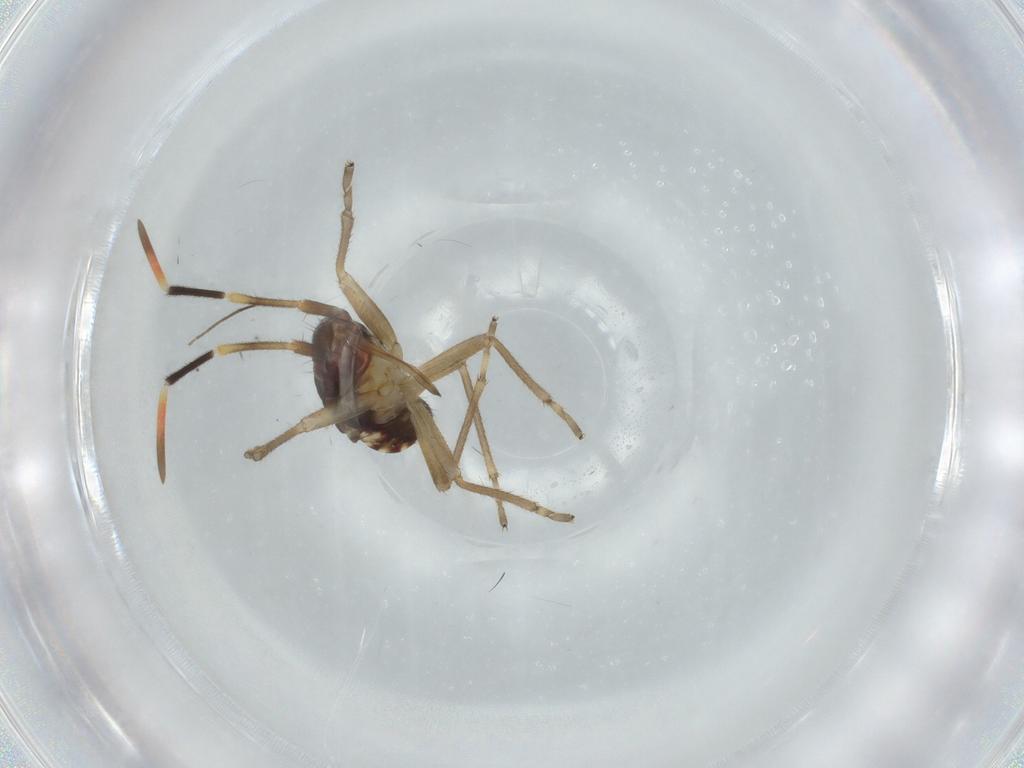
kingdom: Animalia
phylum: Arthropoda
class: Insecta
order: Hemiptera
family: Rhyparochromidae
